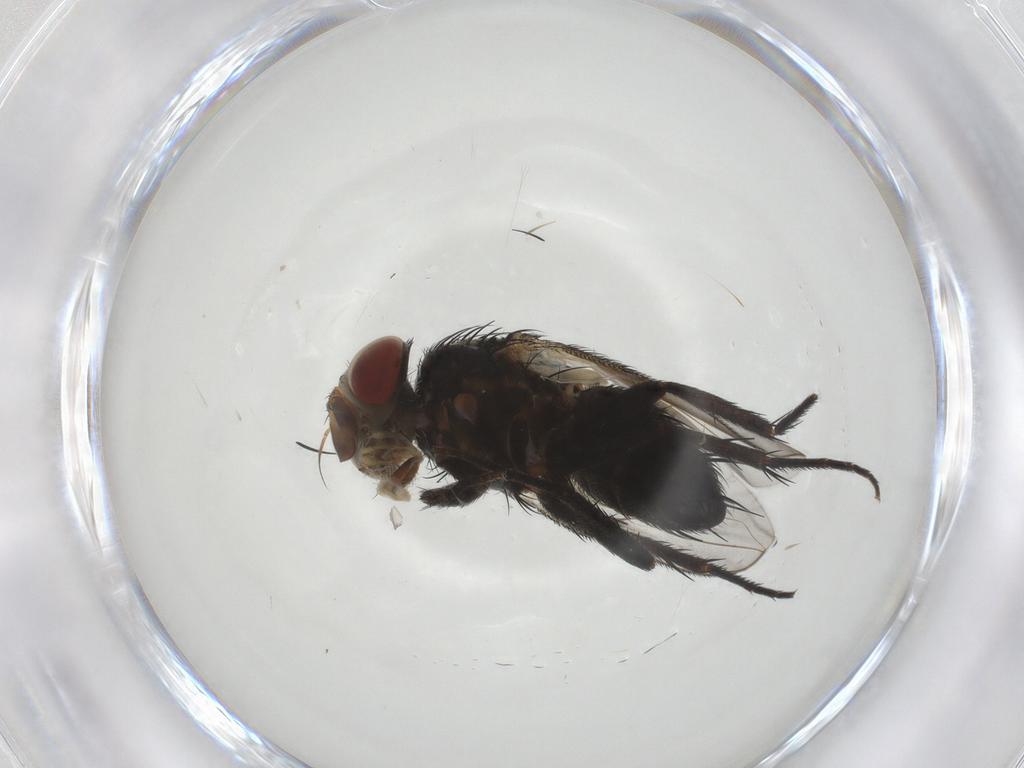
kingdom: Animalia
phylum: Arthropoda
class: Insecta
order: Diptera
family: Tachinidae
